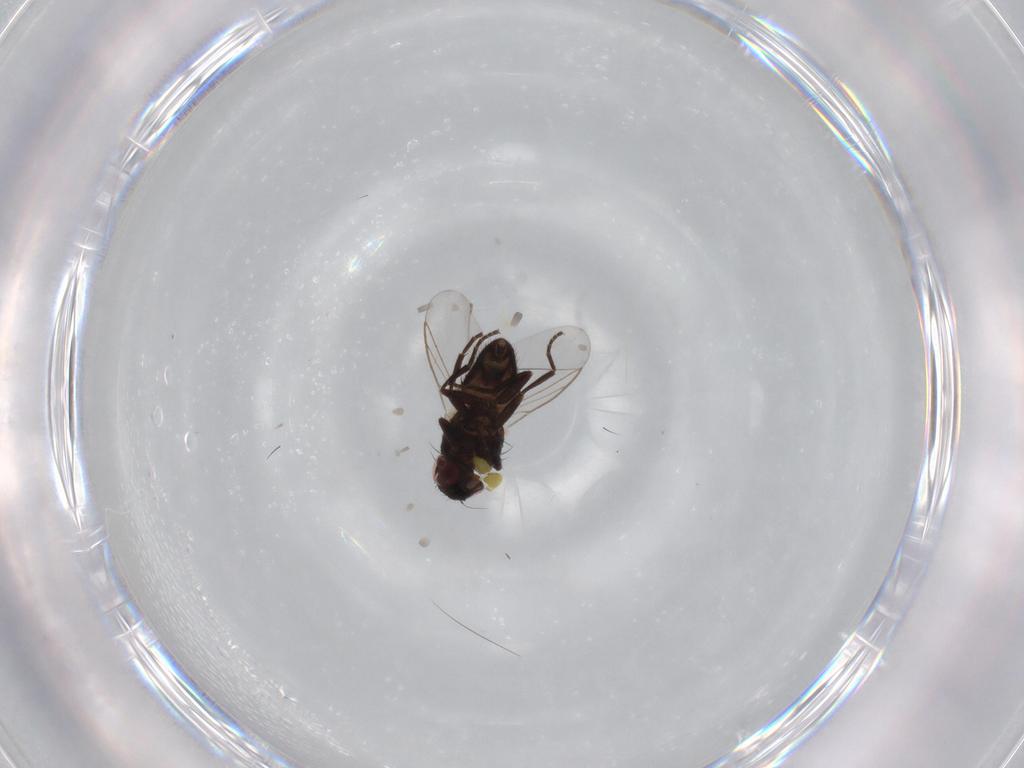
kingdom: Animalia
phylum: Arthropoda
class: Insecta
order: Diptera
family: Hybotidae
